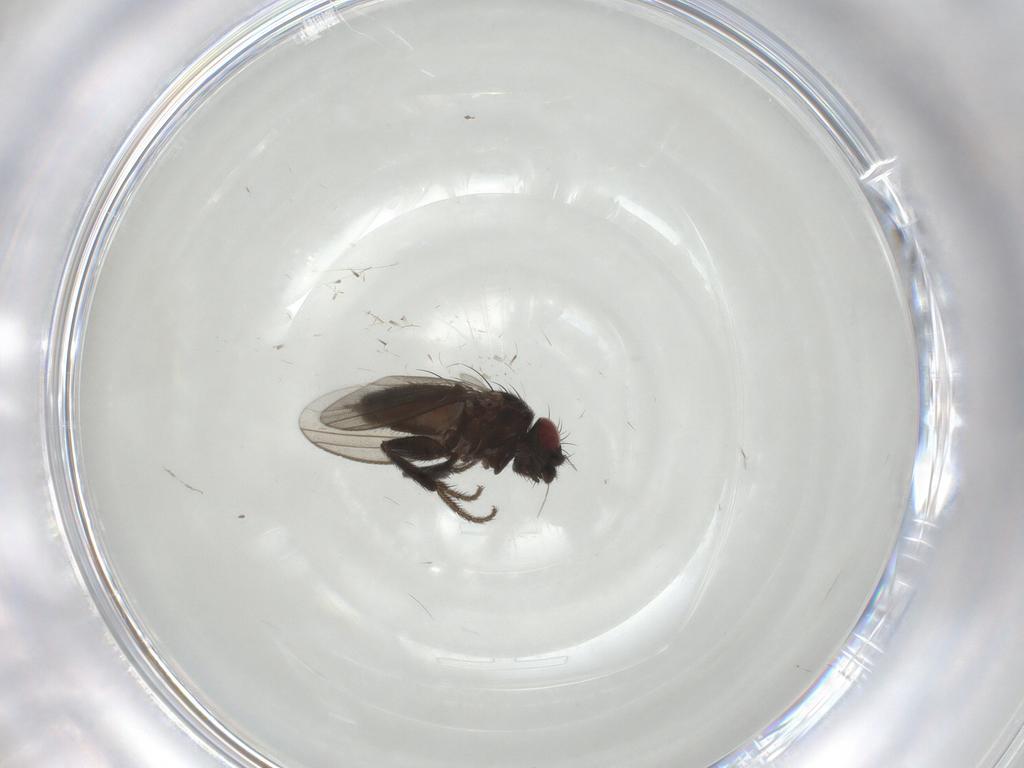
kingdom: Animalia
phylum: Arthropoda
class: Insecta
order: Diptera
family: Milichiidae
